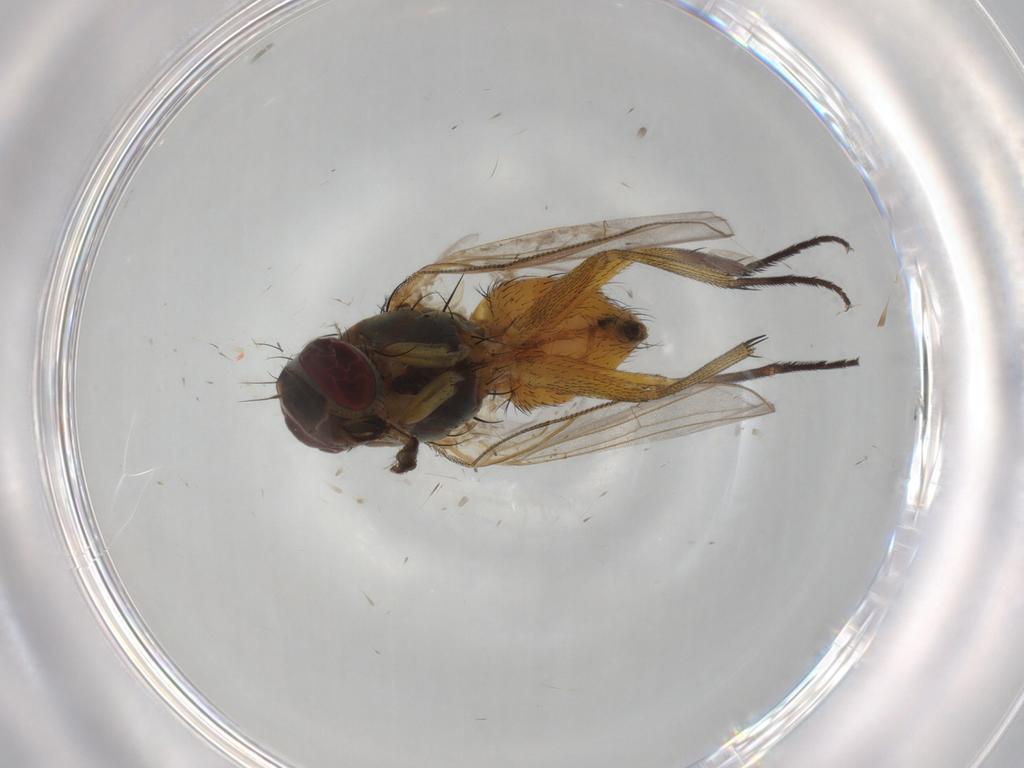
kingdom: Animalia
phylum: Arthropoda
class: Insecta
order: Diptera
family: Muscidae
